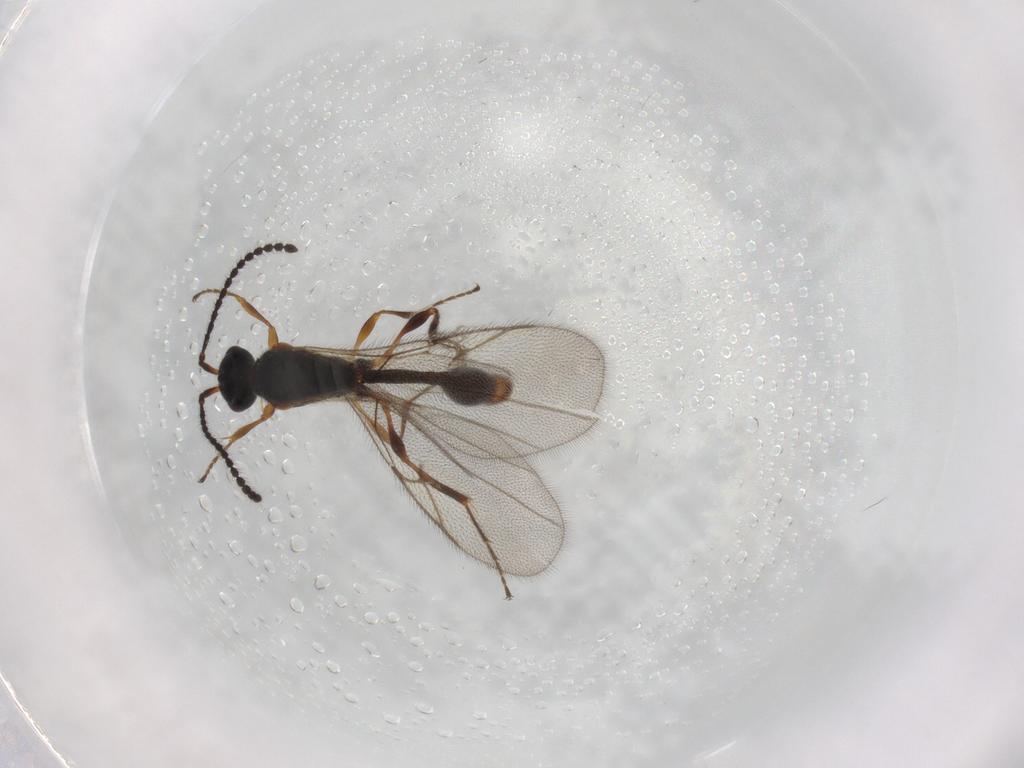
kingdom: Animalia
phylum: Arthropoda
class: Insecta
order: Hymenoptera
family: Diapriidae
